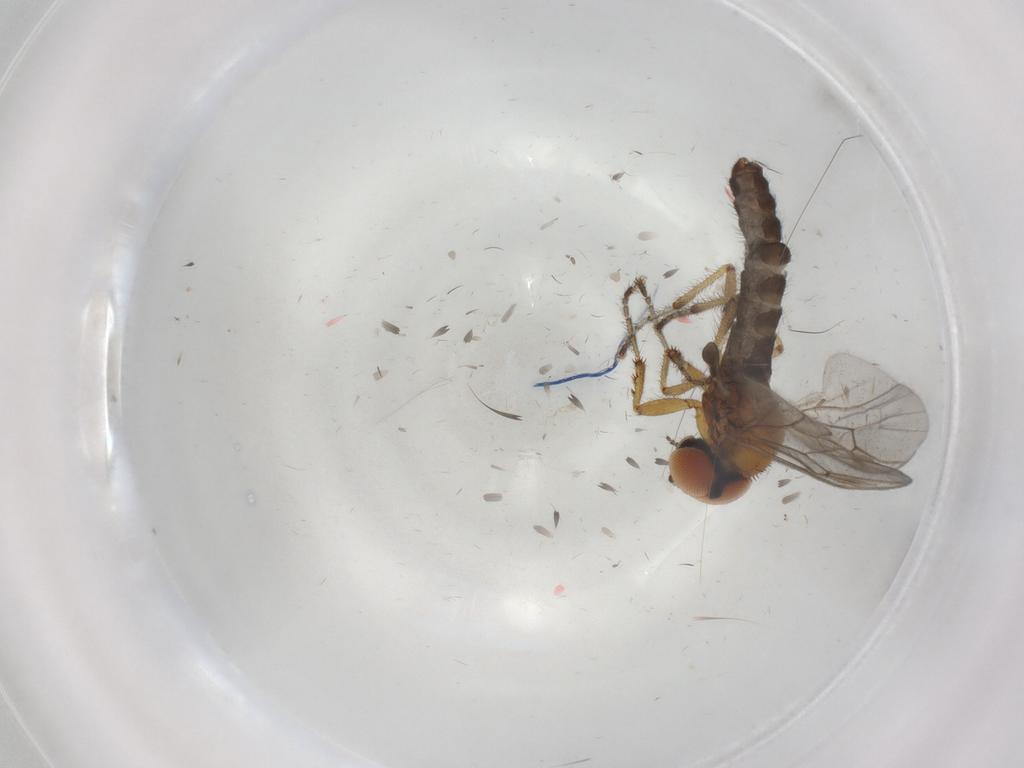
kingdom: Animalia
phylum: Arthropoda
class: Insecta
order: Diptera
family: Bibionidae
